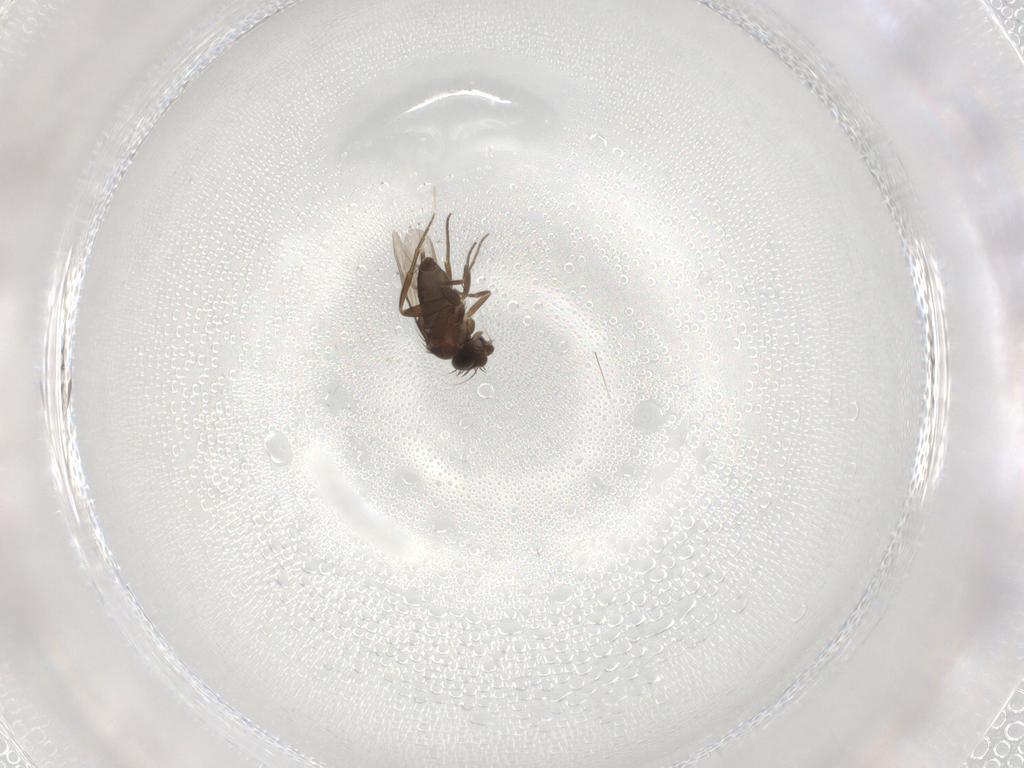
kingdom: Animalia
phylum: Arthropoda
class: Insecta
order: Diptera
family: Phoridae
